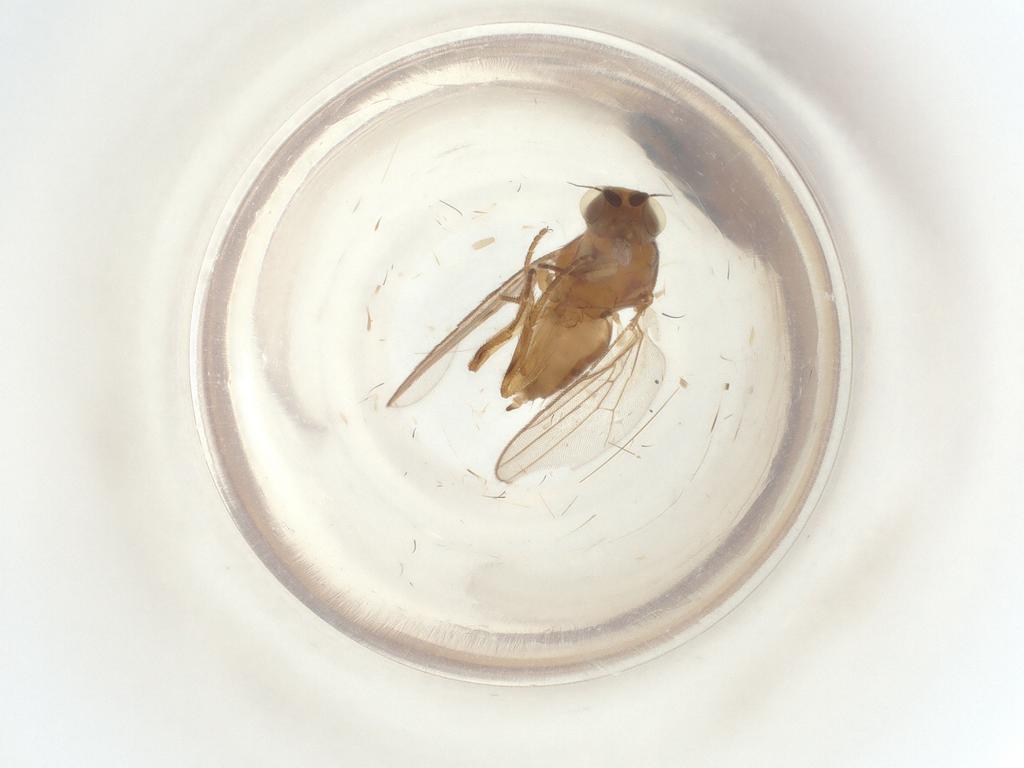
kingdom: Animalia
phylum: Arthropoda
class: Insecta
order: Diptera
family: Chloropidae
